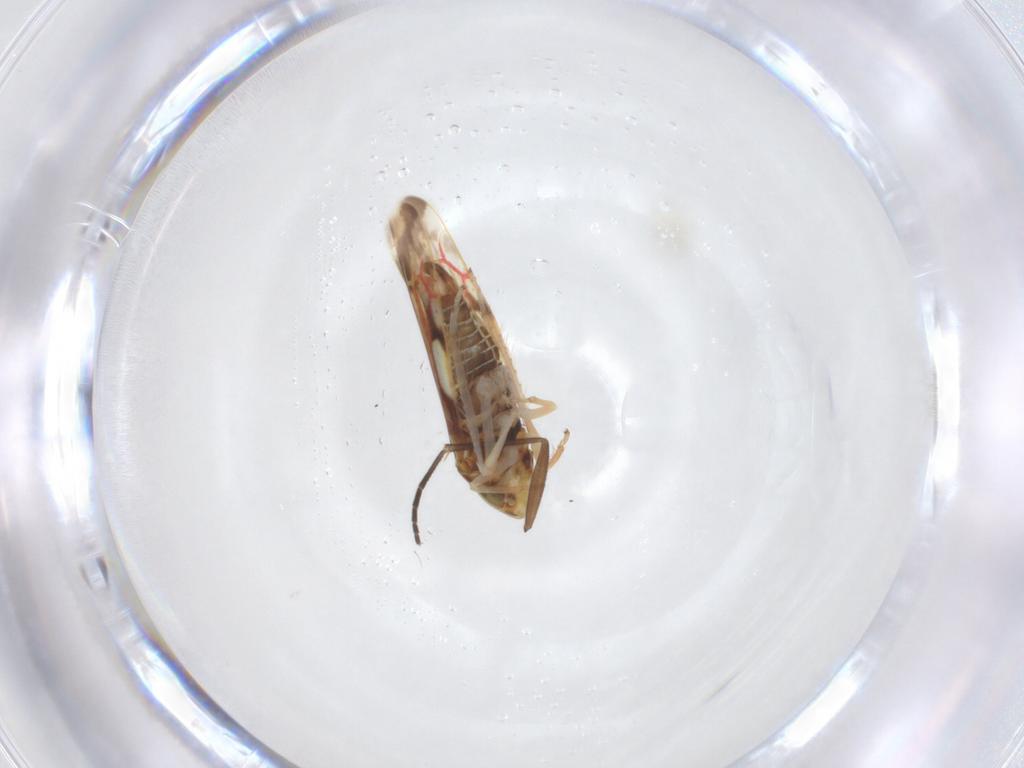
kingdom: Animalia
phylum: Arthropoda
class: Insecta
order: Hemiptera
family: Cicadellidae
